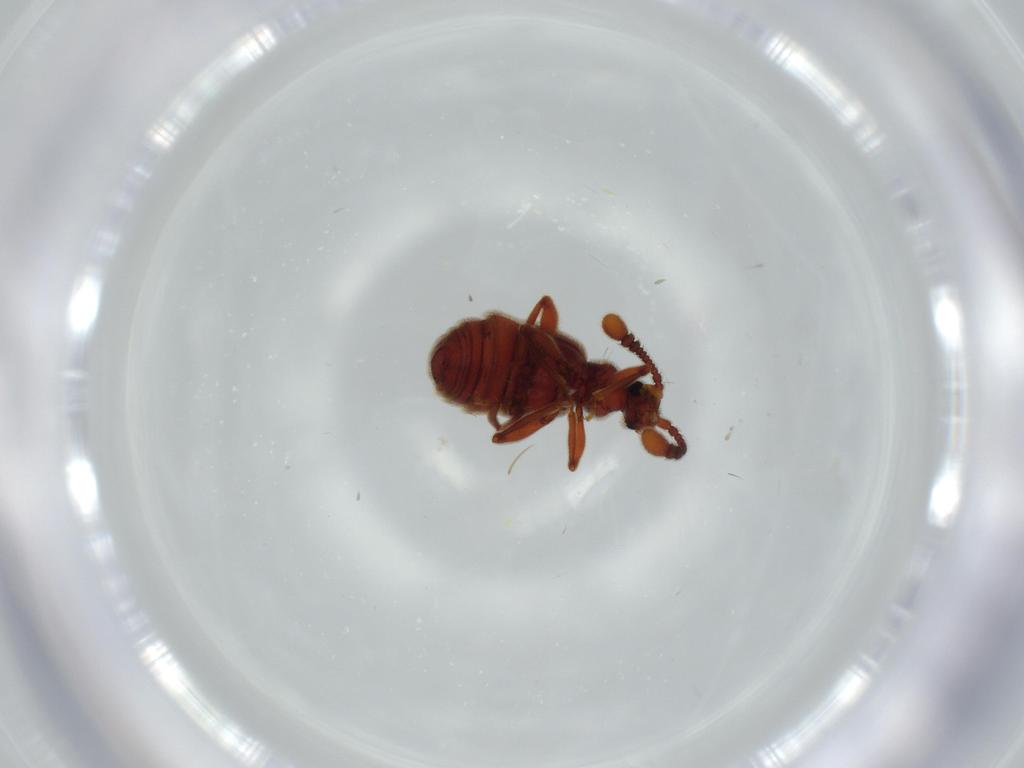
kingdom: Animalia
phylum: Arthropoda
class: Insecta
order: Coleoptera
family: Staphylinidae
